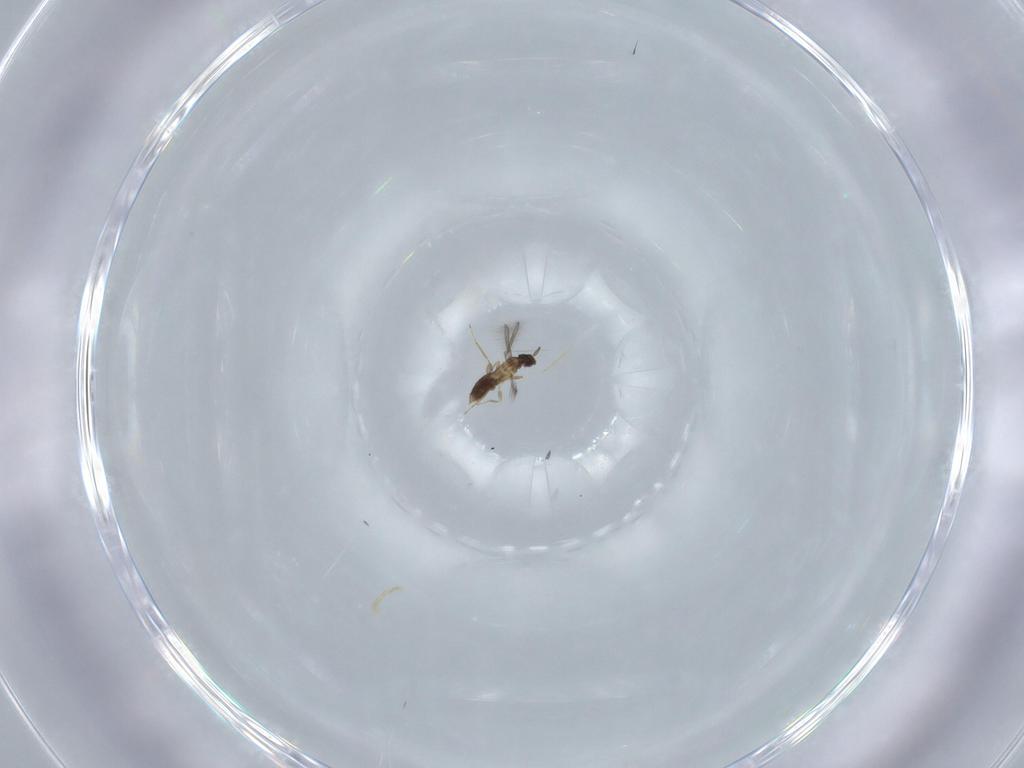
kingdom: Animalia
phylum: Arthropoda
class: Insecta
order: Hymenoptera
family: Mymaridae
